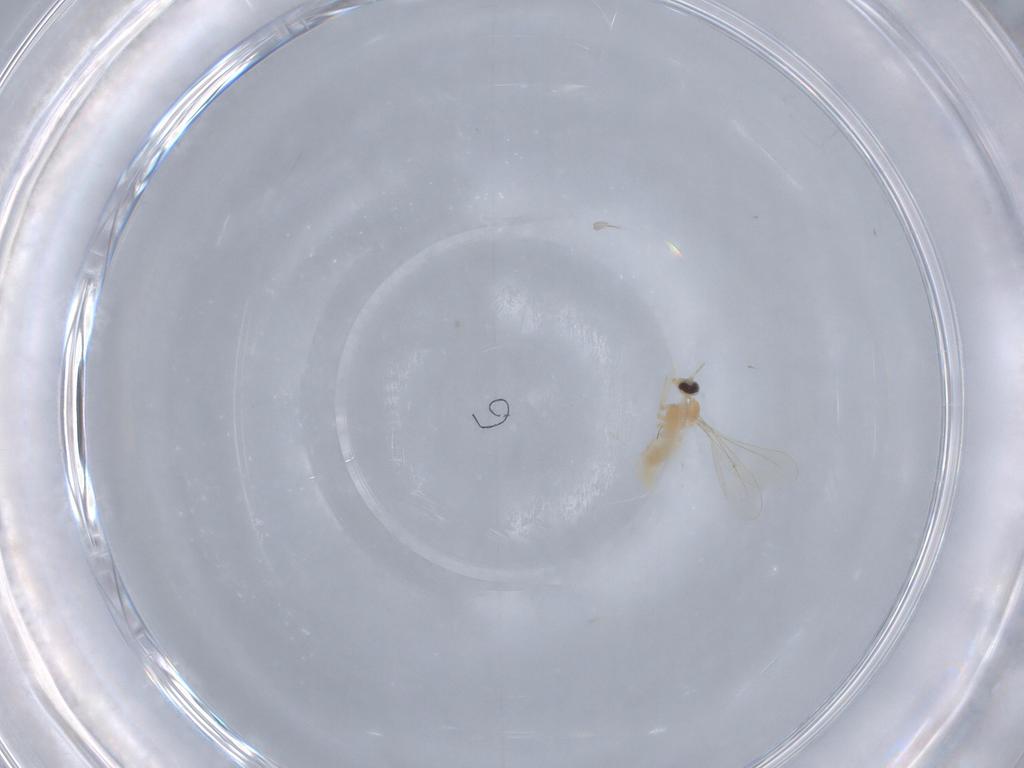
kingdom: Animalia
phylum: Arthropoda
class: Insecta
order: Diptera
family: Cecidomyiidae
